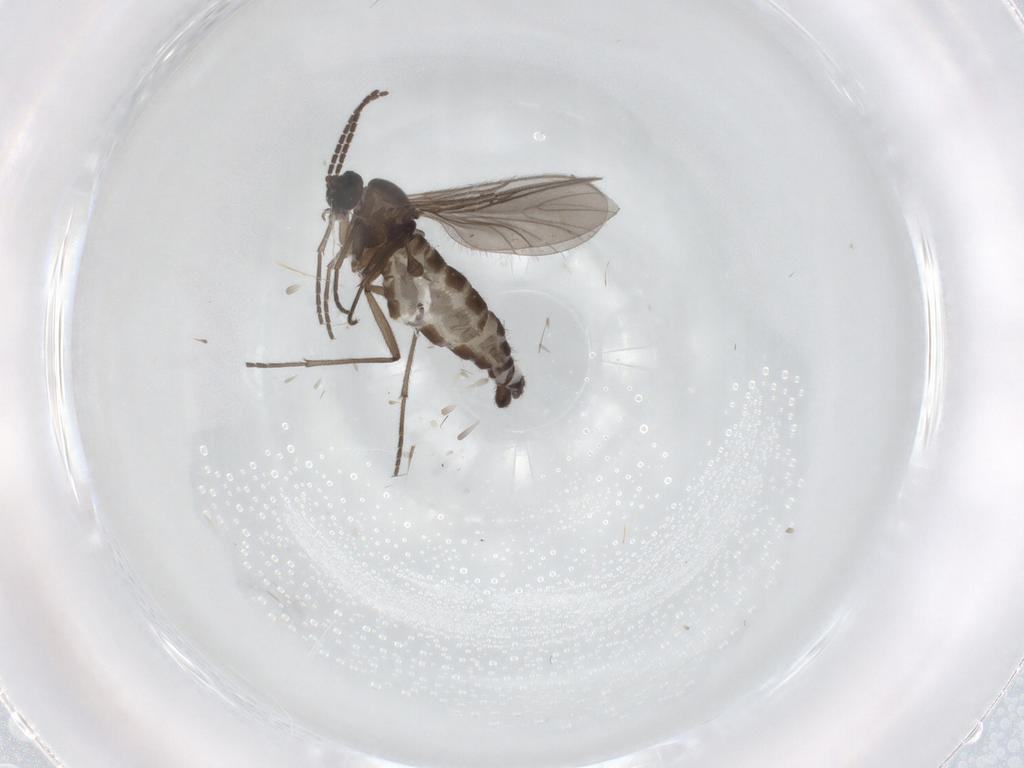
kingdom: Animalia
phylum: Arthropoda
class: Insecta
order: Diptera
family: Sciaridae
